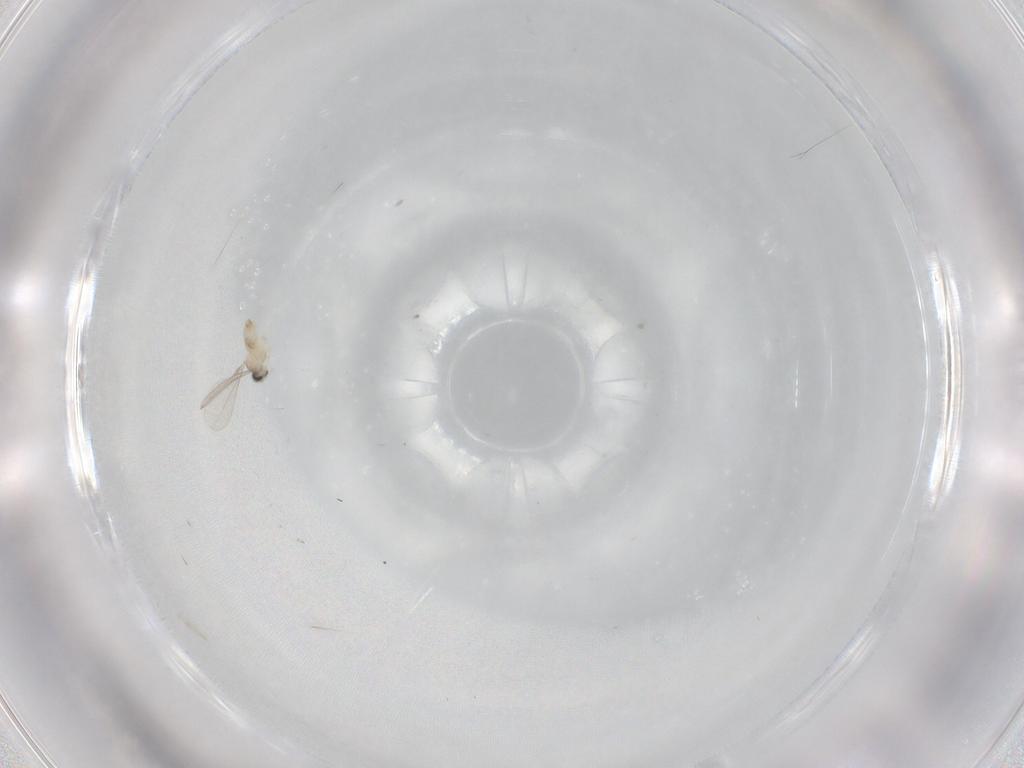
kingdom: Animalia
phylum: Arthropoda
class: Insecta
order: Diptera
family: Cecidomyiidae
